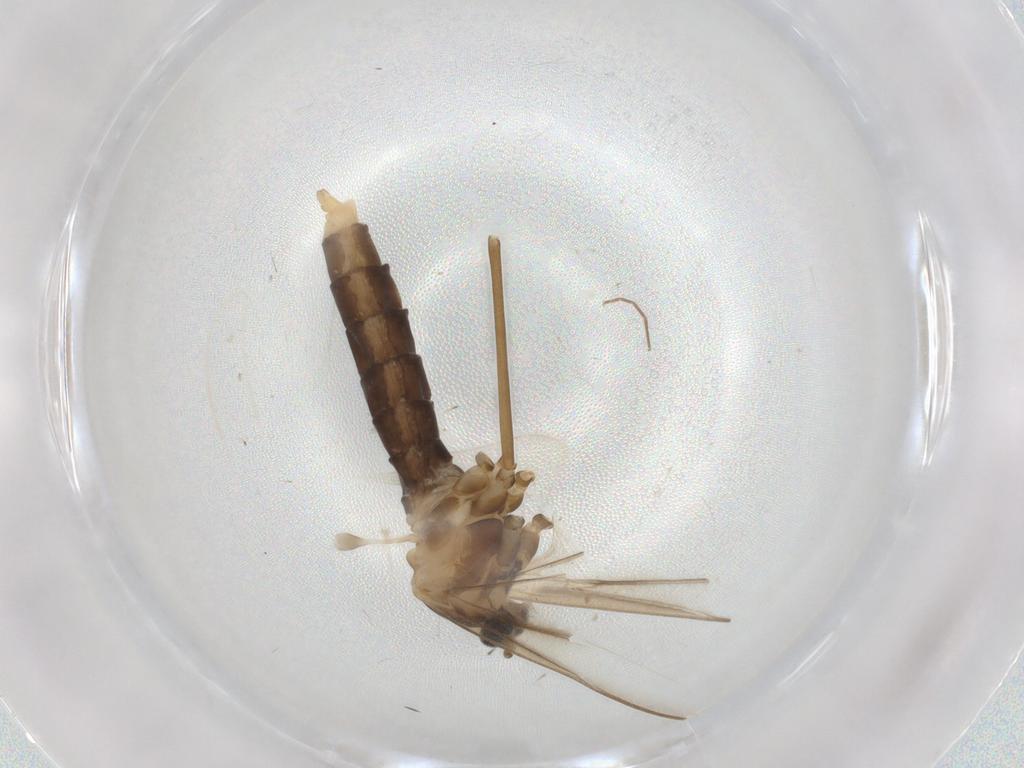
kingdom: Animalia
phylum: Arthropoda
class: Insecta
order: Diptera
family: Cecidomyiidae
